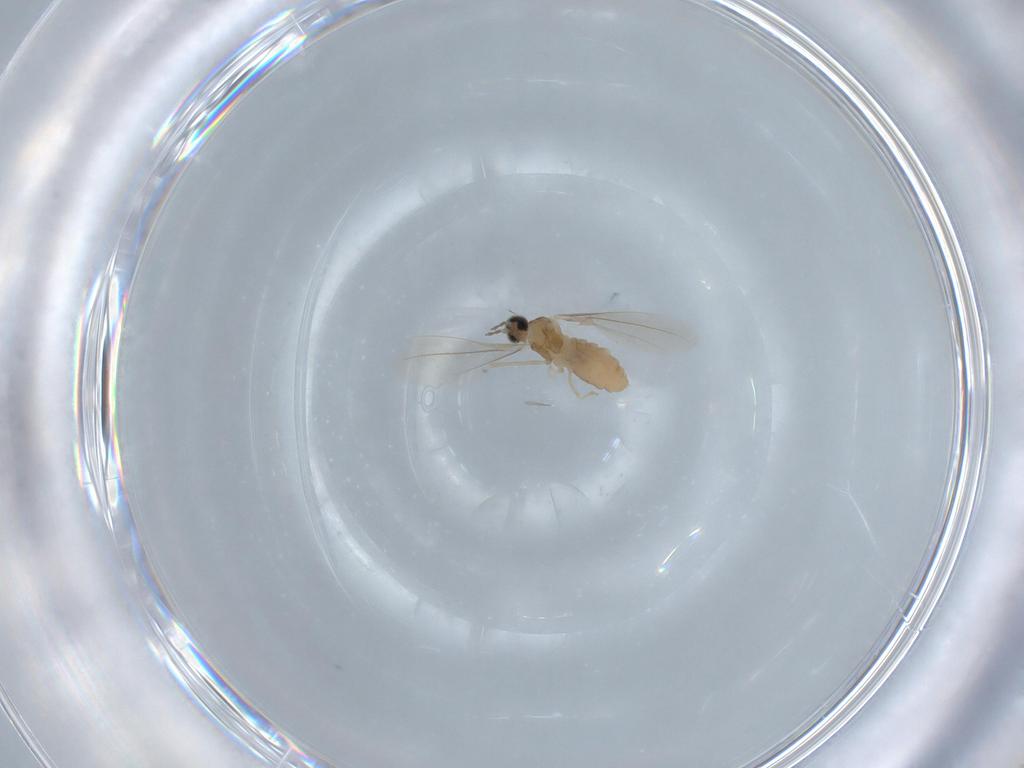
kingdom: Animalia
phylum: Arthropoda
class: Insecta
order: Diptera
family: Cecidomyiidae
